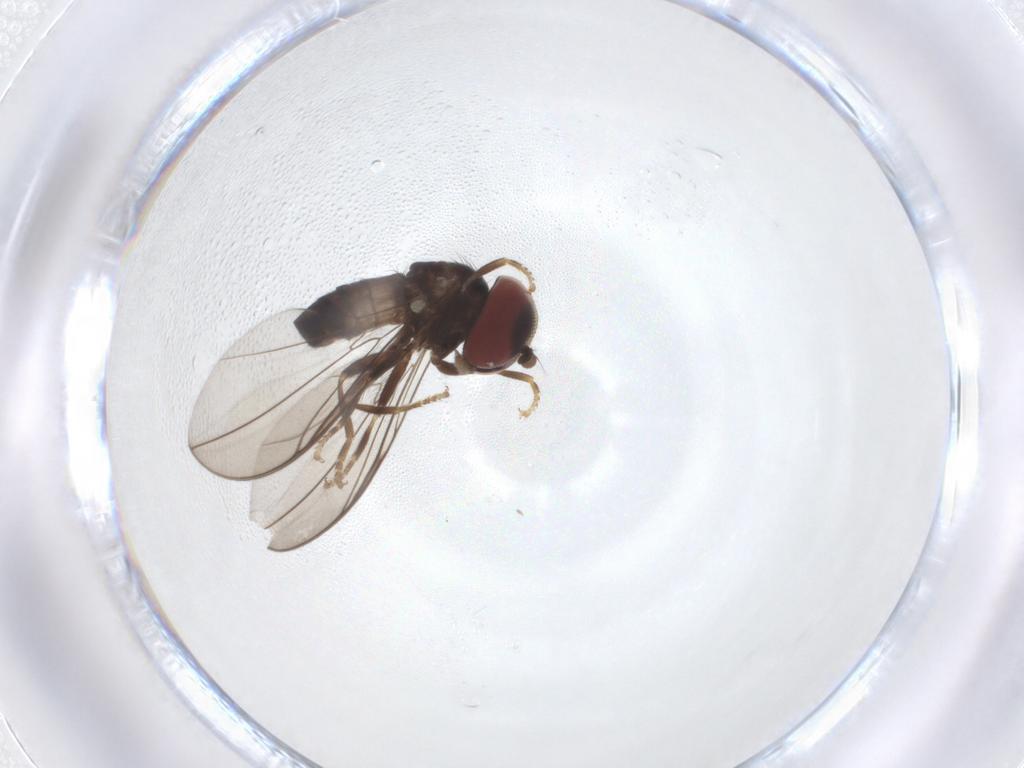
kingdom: Animalia
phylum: Arthropoda
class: Insecta
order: Diptera
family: Pipunculidae
